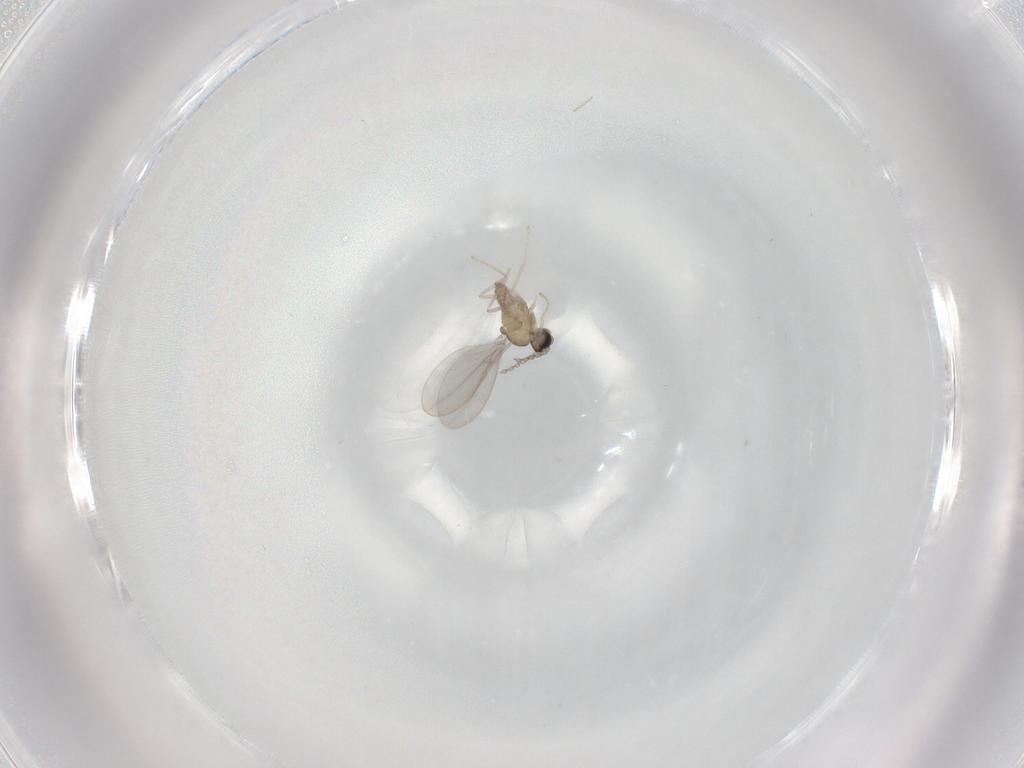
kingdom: Animalia
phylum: Arthropoda
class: Insecta
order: Diptera
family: Cecidomyiidae
